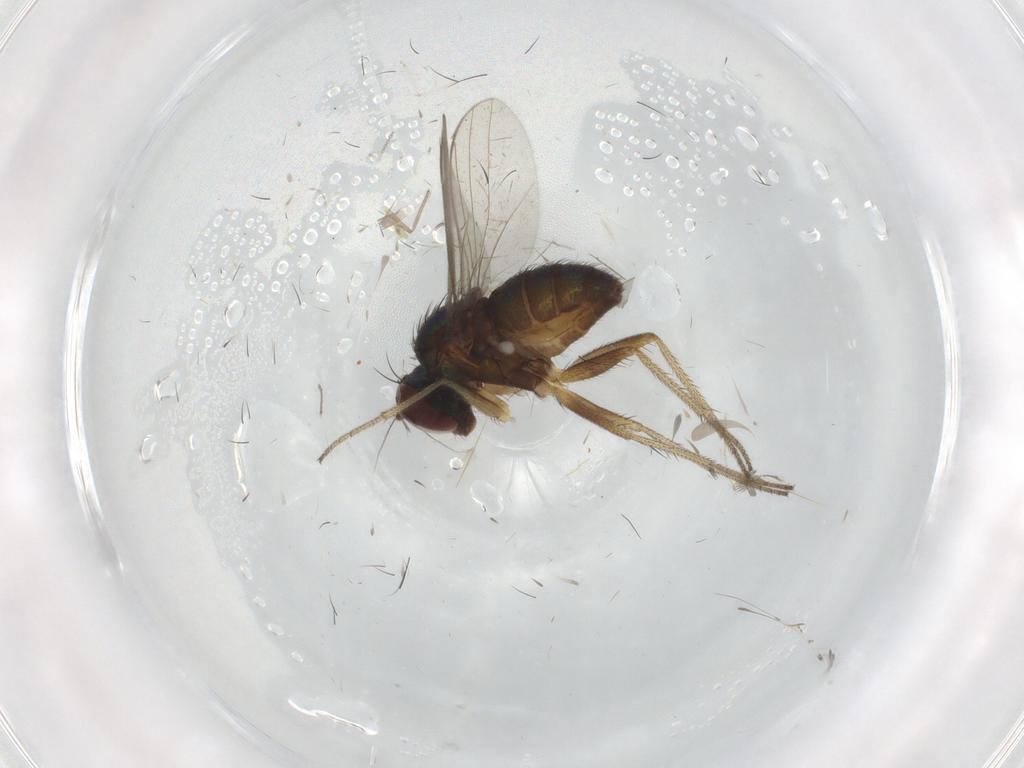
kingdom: Animalia
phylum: Arthropoda
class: Insecta
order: Diptera
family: Cecidomyiidae
